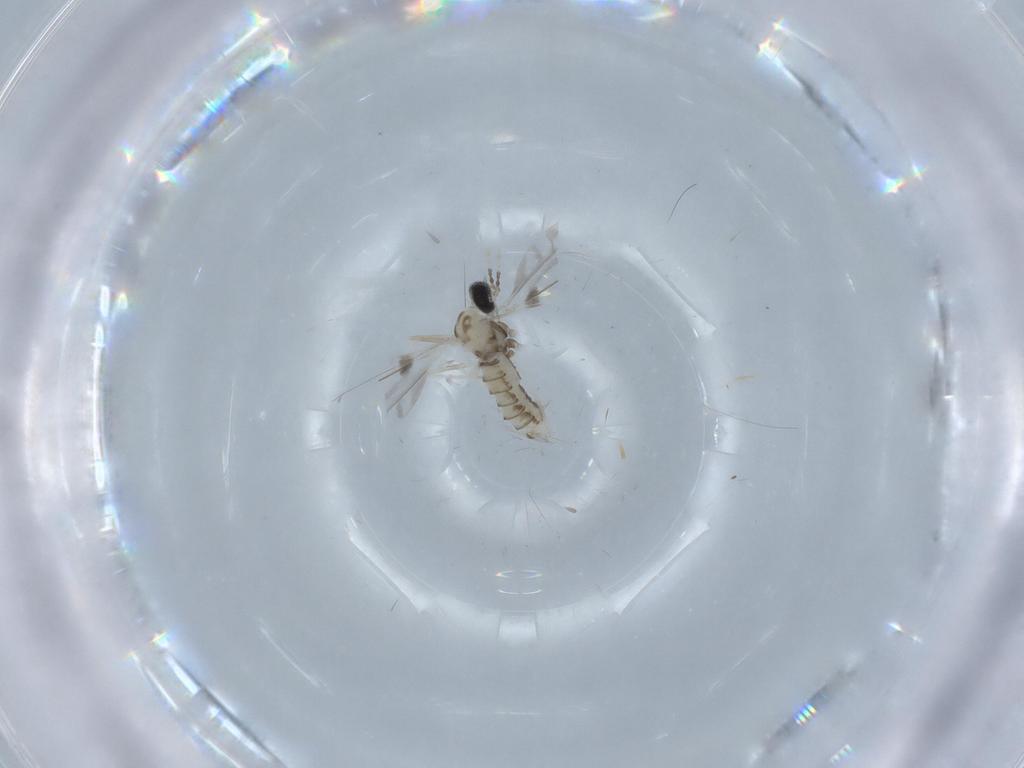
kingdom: Animalia
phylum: Arthropoda
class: Insecta
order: Diptera
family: Cecidomyiidae
